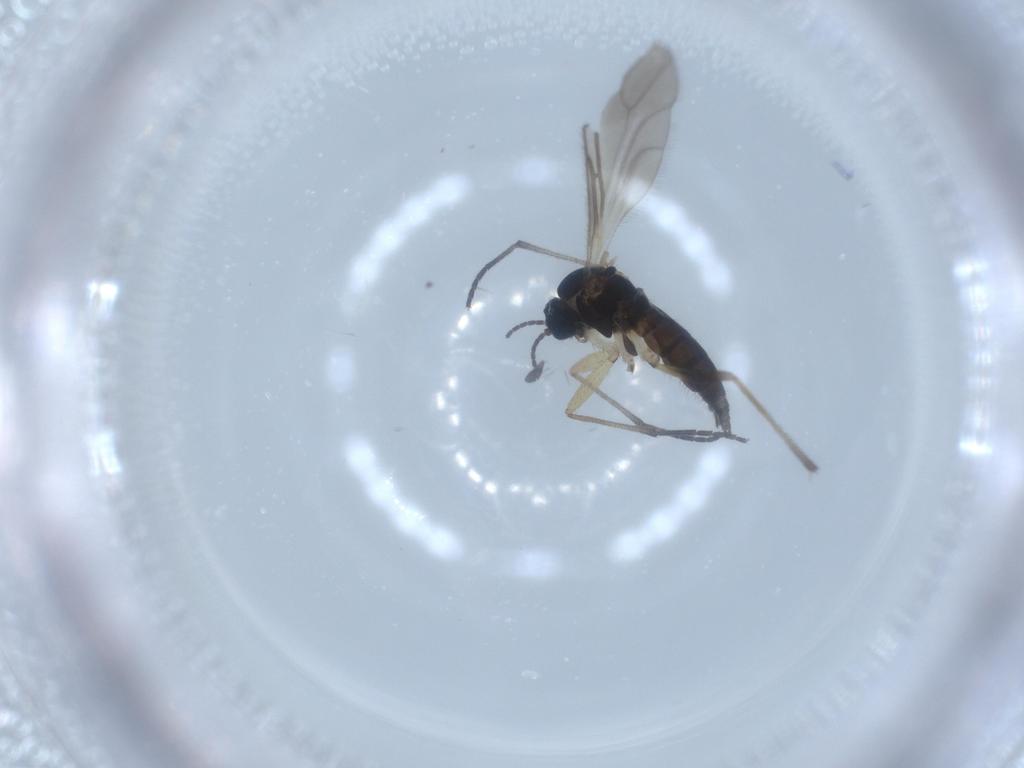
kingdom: Animalia
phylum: Arthropoda
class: Insecta
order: Diptera
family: Sciaridae
